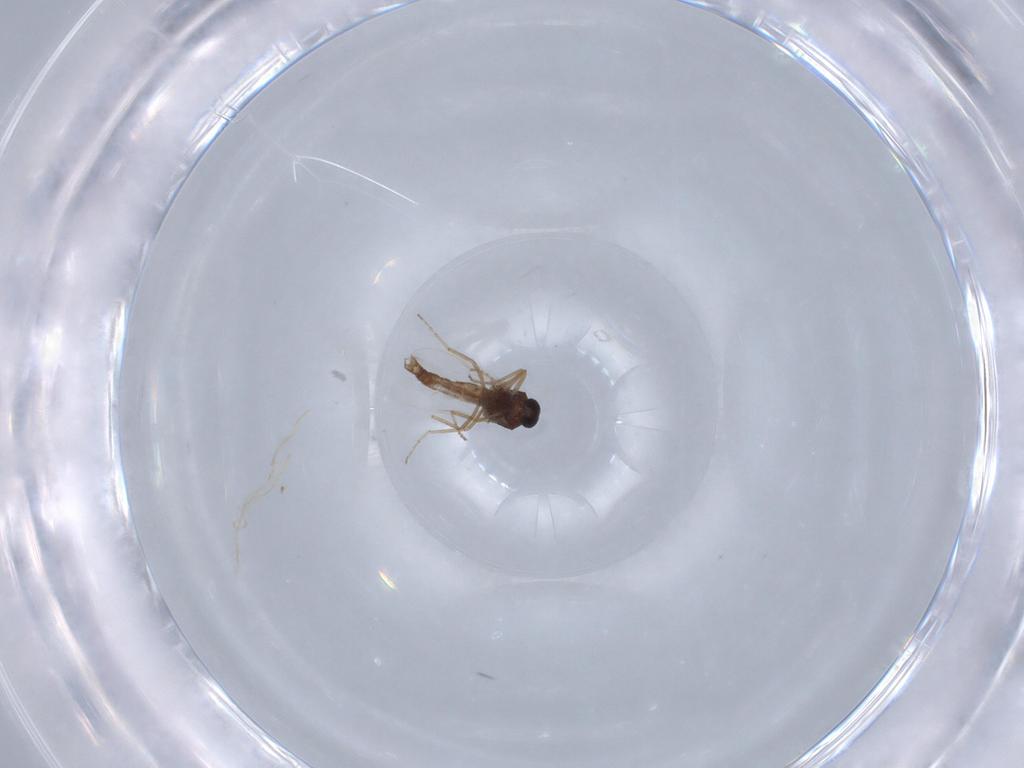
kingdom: Animalia
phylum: Arthropoda
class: Insecta
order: Diptera
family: Ceratopogonidae
